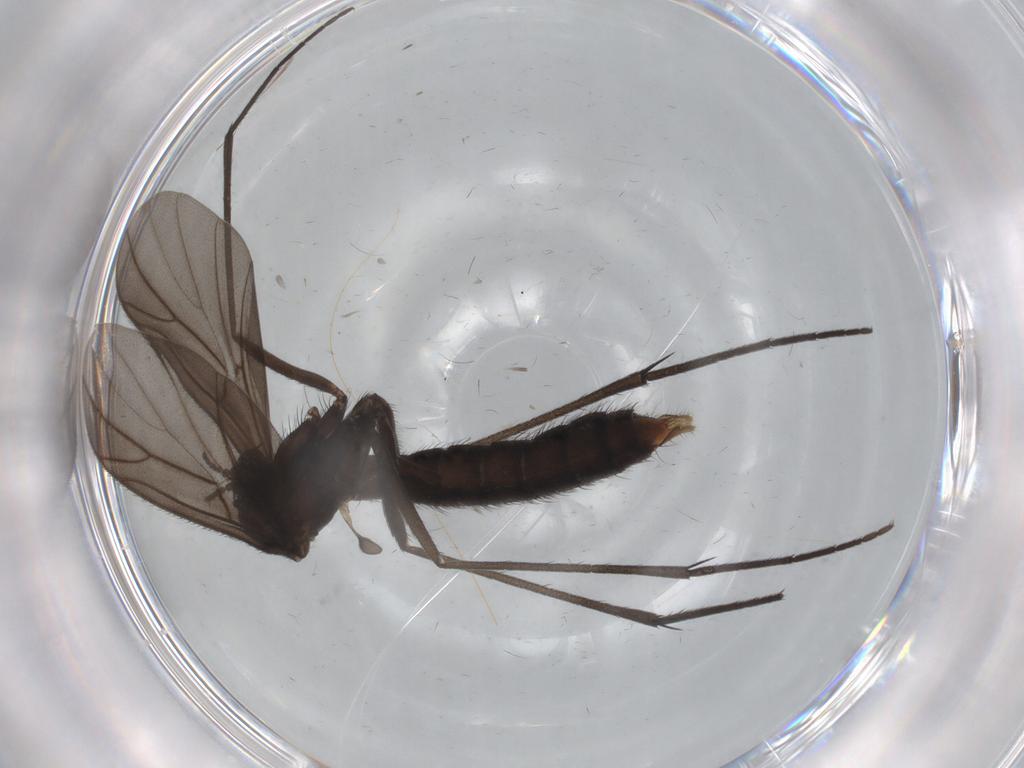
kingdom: Animalia
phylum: Arthropoda
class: Insecta
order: Diptera
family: Ditomyiidae
